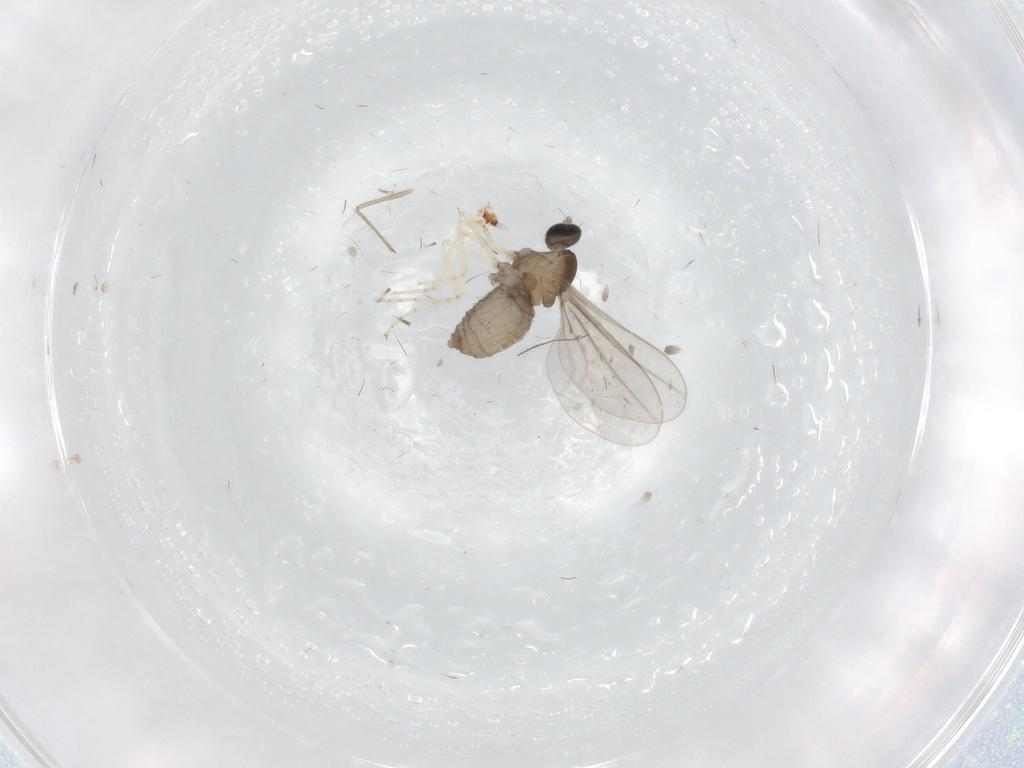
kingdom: Animalia
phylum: Arthropoda
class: Insecta
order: Diptera
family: Cecidomyiidae
